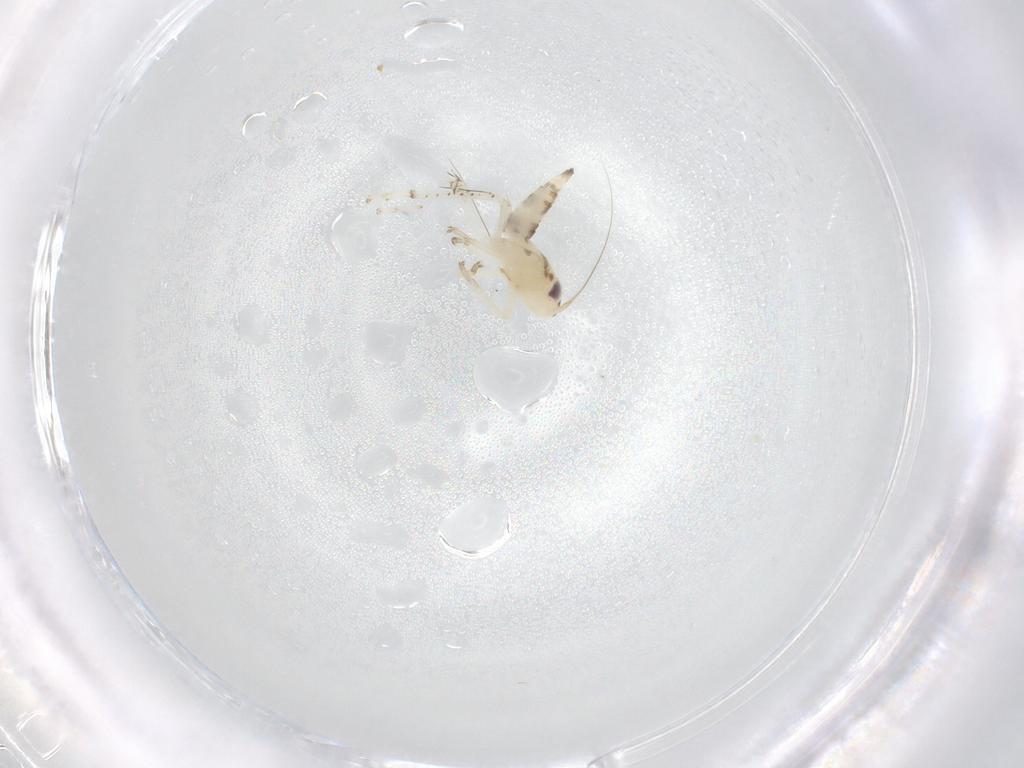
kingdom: Animalia
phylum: Arthropoda
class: Insecta
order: Hemiptera
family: Cicadellidae
